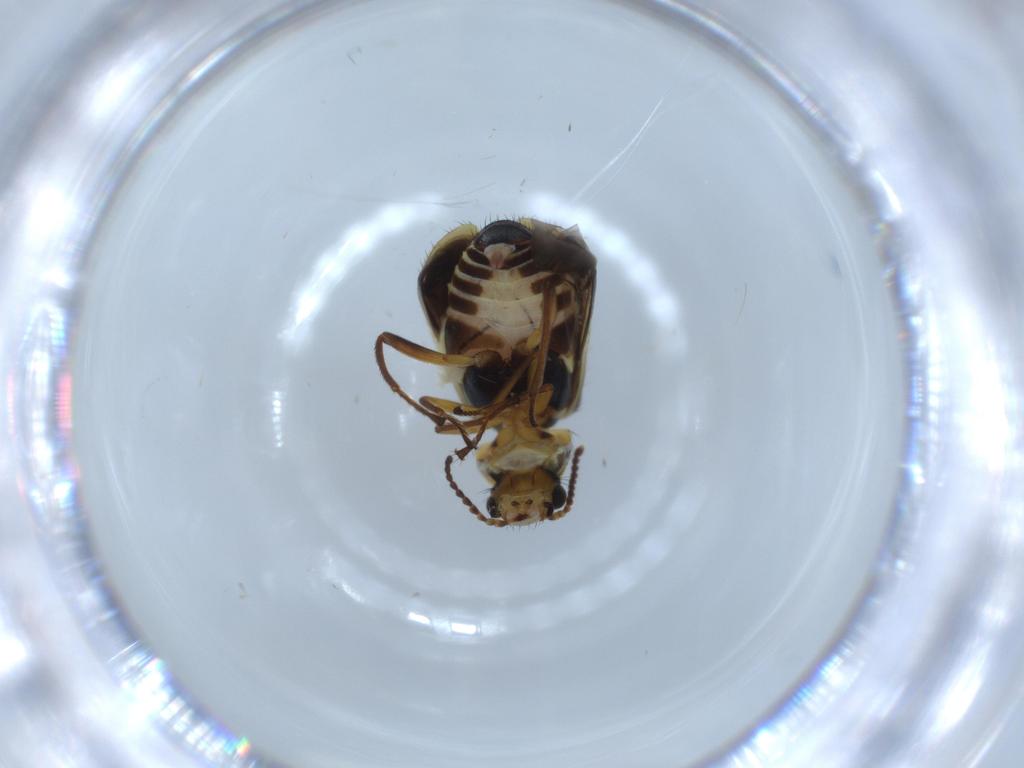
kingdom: Animalia
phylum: Arthropoda
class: Insecta
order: Coleoptera
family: Melyridae
